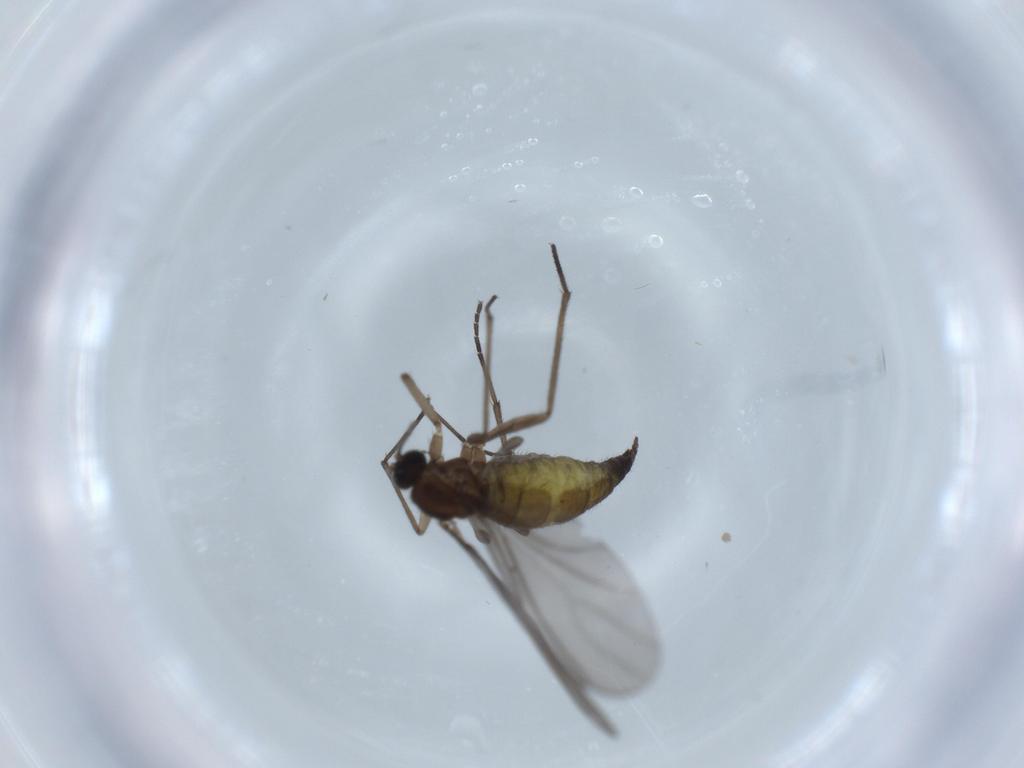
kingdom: Animalia
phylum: Arthropoda
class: Insecta
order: Diptera
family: Sciaridae
